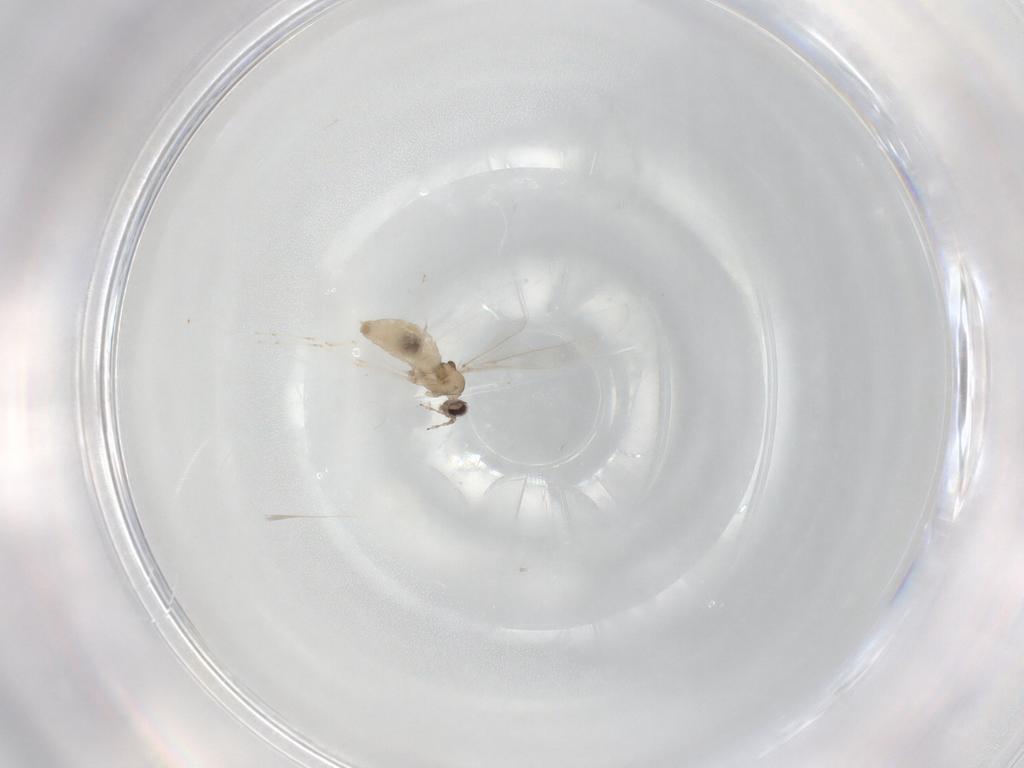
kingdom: Animalia
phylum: Arthropoda
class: Insecta
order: Diptera
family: Cecidomyiidae
